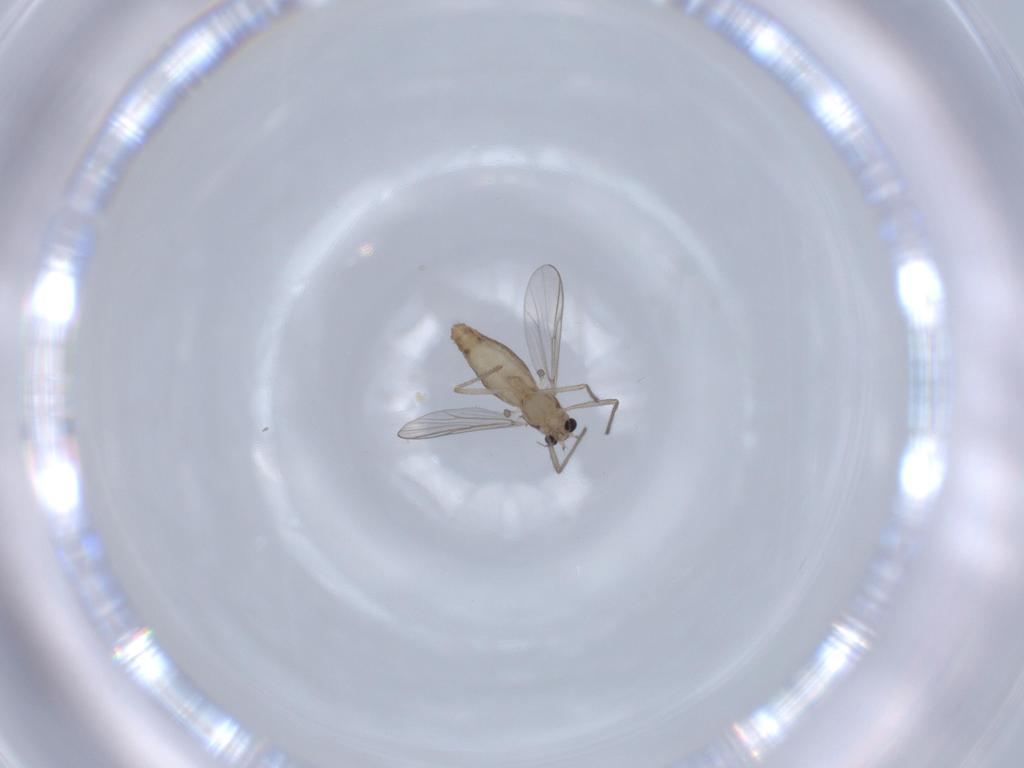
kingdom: Animalia
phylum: Arthropoda
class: Insecta
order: Diptera
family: Chironomidae
